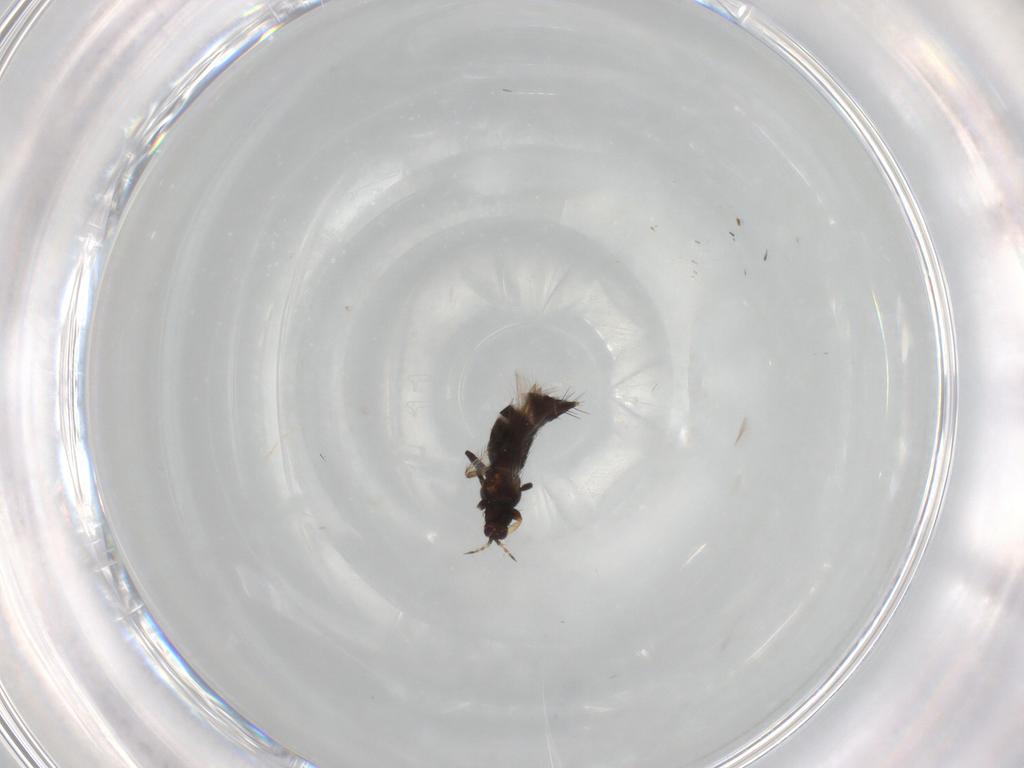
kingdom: Animalia
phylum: Arthropoda
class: Insecta
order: Thysanoptera
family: Thripidae
